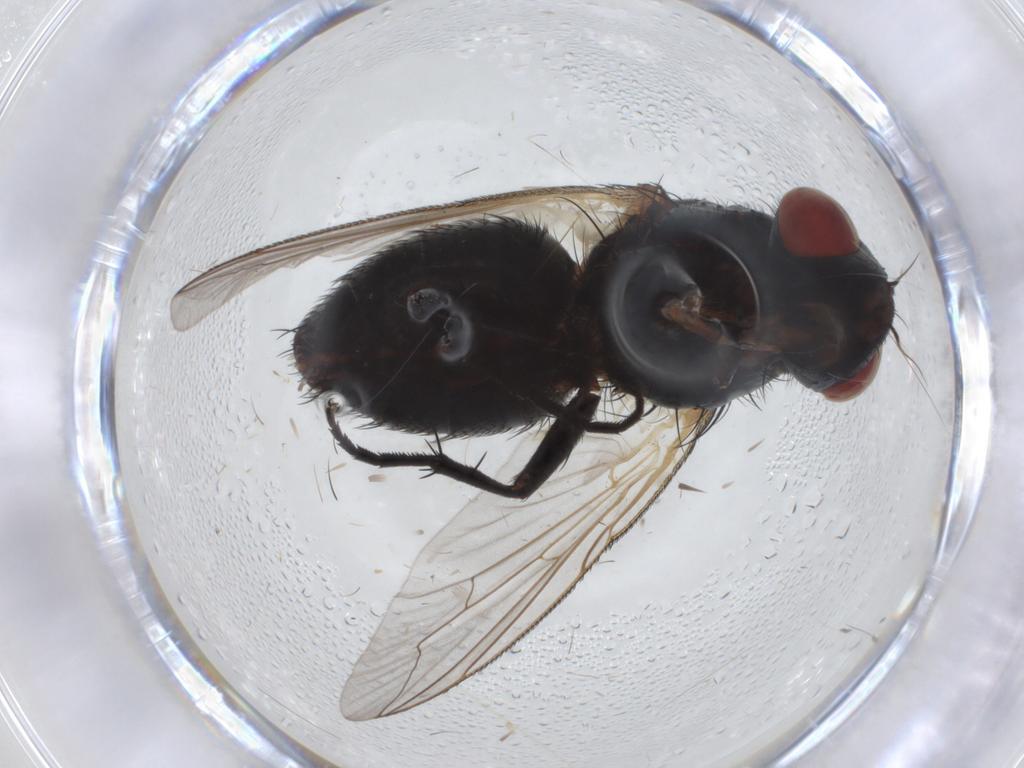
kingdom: Animalia
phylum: Arthropoda
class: Insecta
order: Diptera
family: Sarcophagidae
